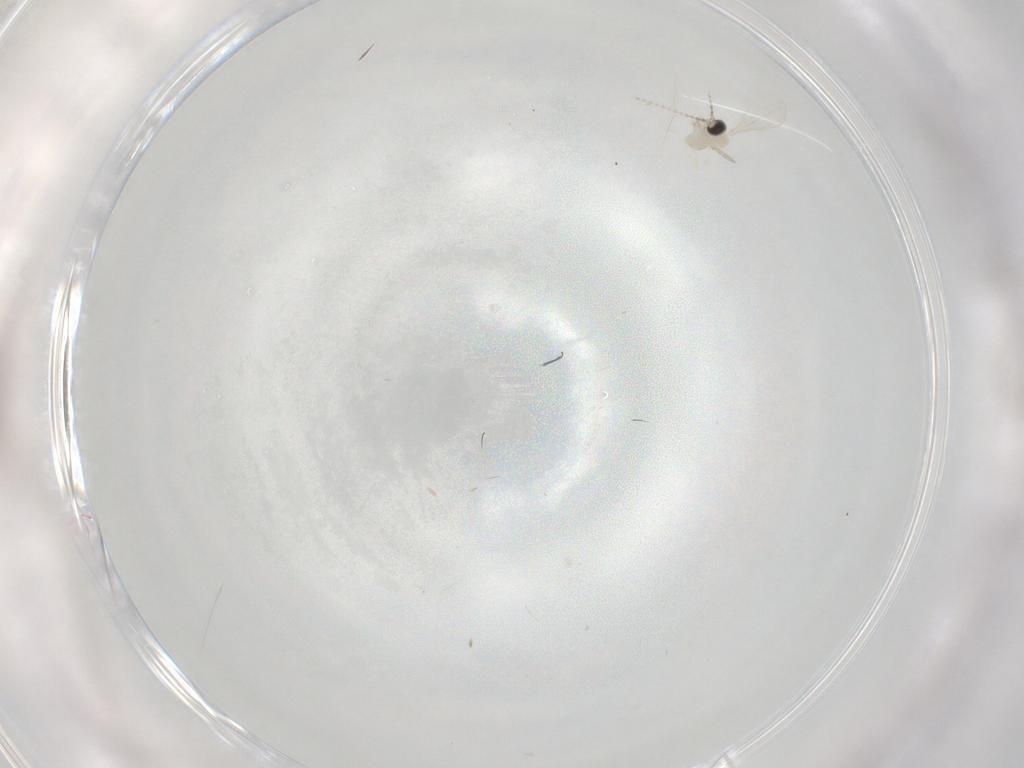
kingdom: Animalia
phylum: Arthropoda
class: Insecta
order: Diptera
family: Cecidomyiidae
